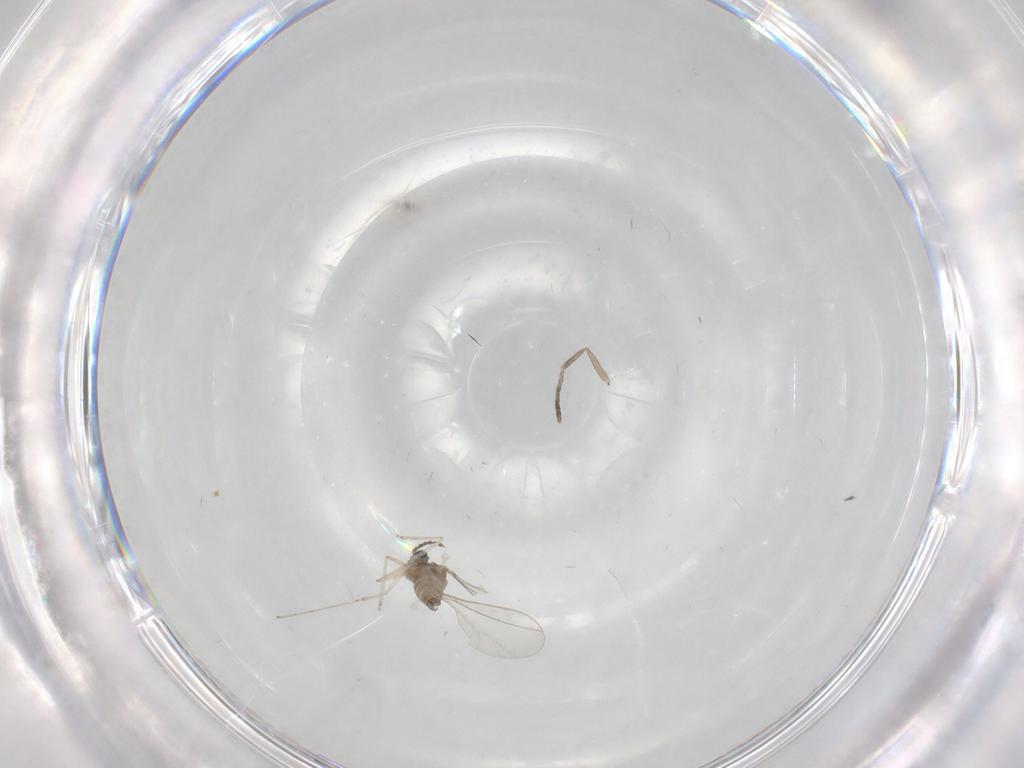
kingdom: Animalia
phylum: Arthropoda
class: Insecta
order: Diptera
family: Cecidomyiidae
